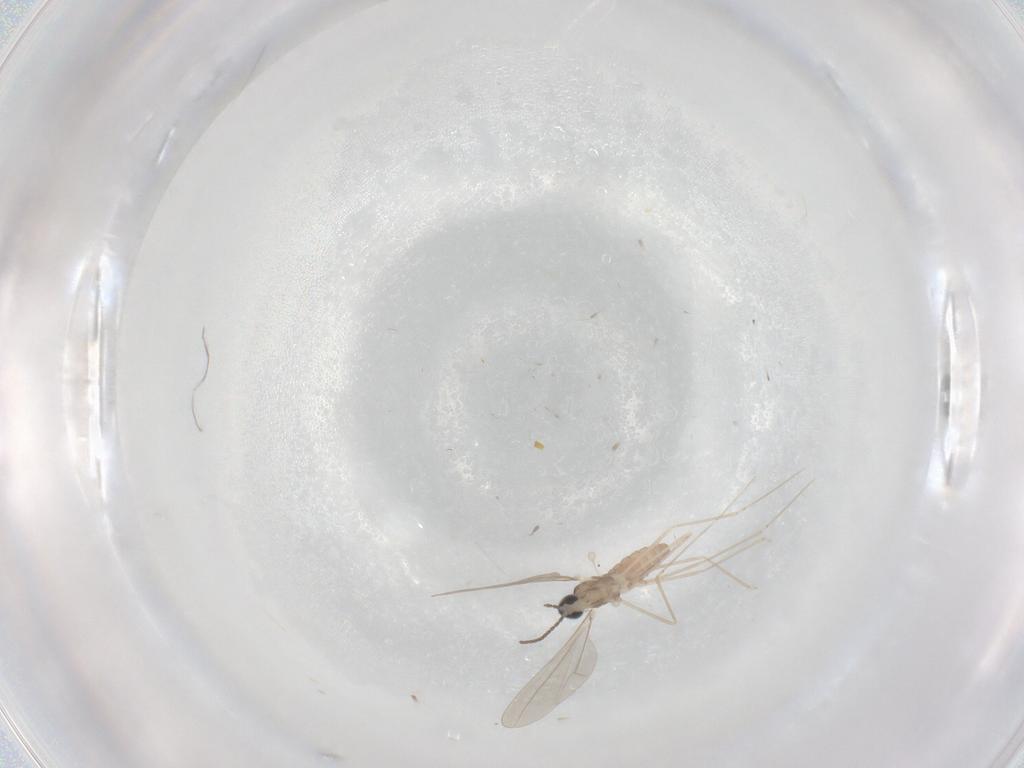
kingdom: Animalia
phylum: Arthropoda
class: Insecta
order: Diptera
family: Cecidomyiidae
